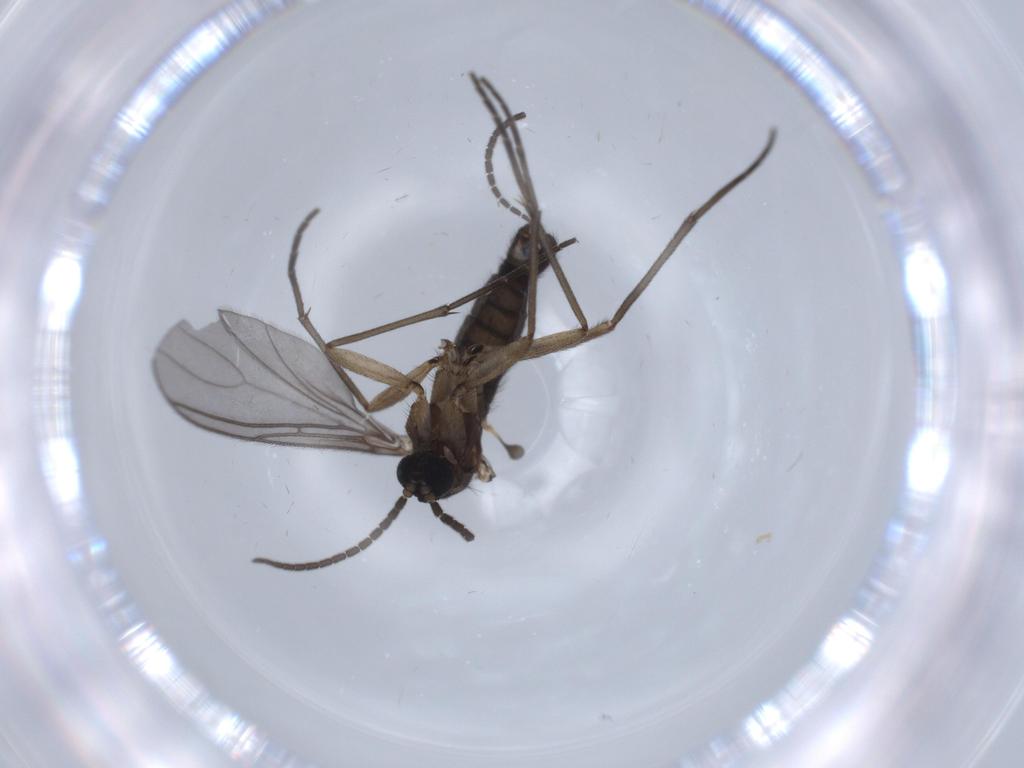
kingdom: Animalia
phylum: Arthropoda
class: Insecta
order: Diptera
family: Sciaridae
